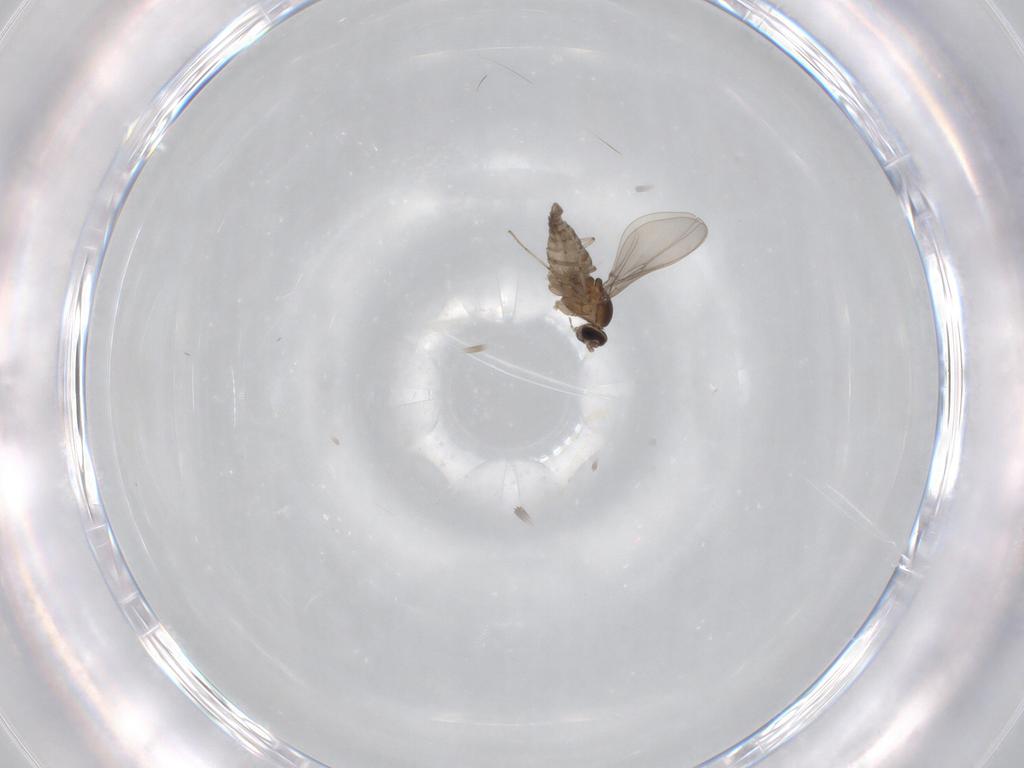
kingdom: Animalia
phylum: Arthropoda
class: Insecta
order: Diptera
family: Cecidomyiidae
